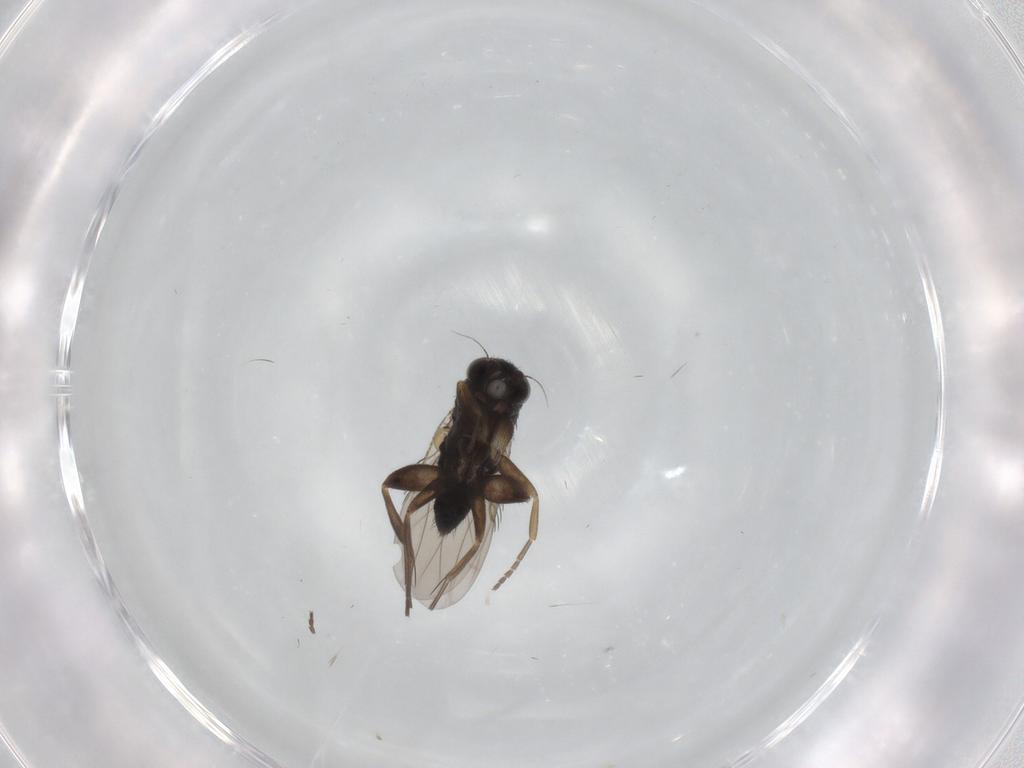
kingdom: Animalia
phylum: Arthropoda
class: Insecta
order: Diptera
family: Phoridae
